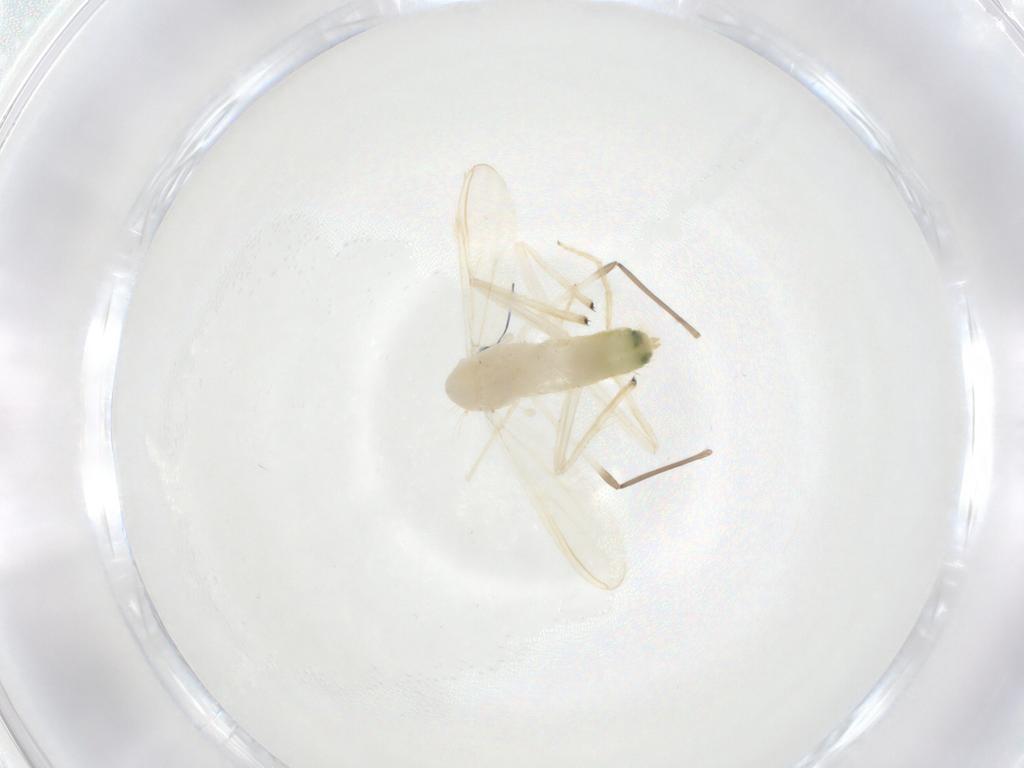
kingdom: Animalia
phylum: Arthropoda
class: Insecta
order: Diptera
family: Chironomidae
